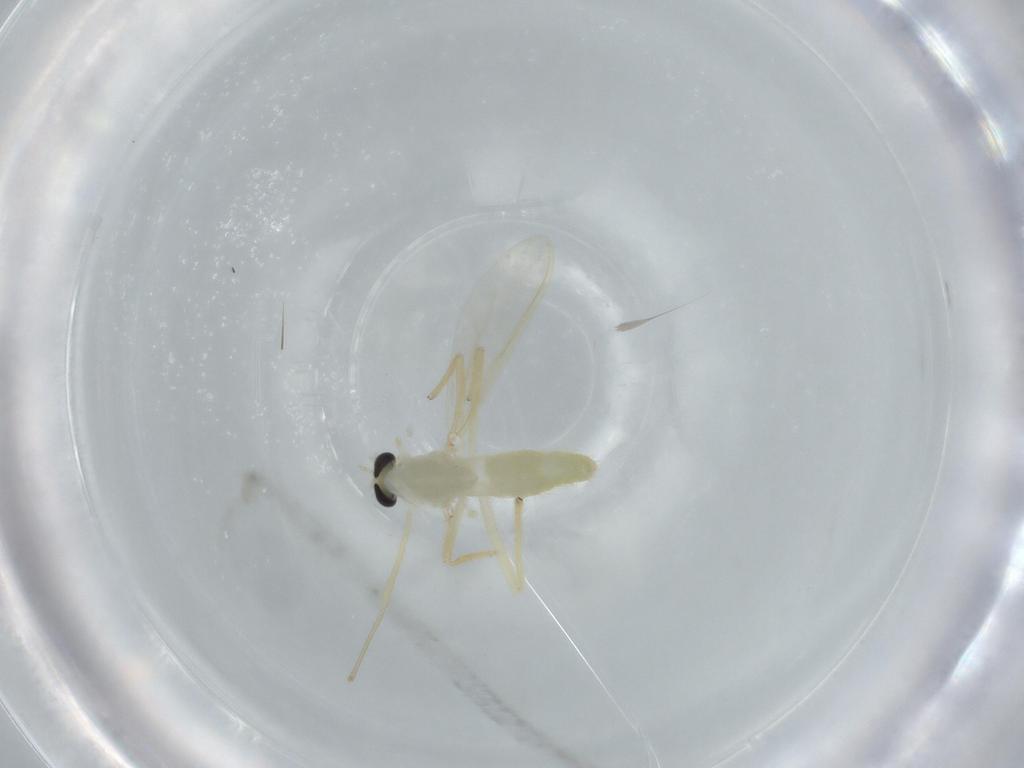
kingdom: Animalia
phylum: Arthropoda
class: Insecta
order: Diptera
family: Chironomidae
